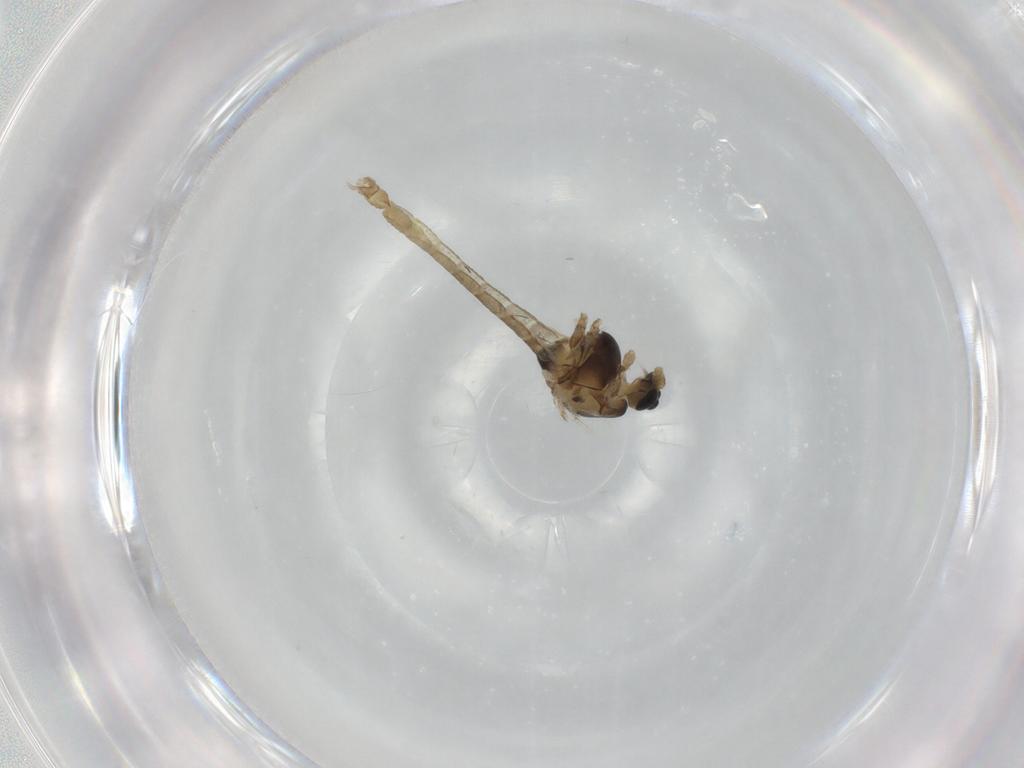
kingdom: Animalia
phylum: Arthropoda
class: Insecta
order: Diptera
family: Chironomidae
